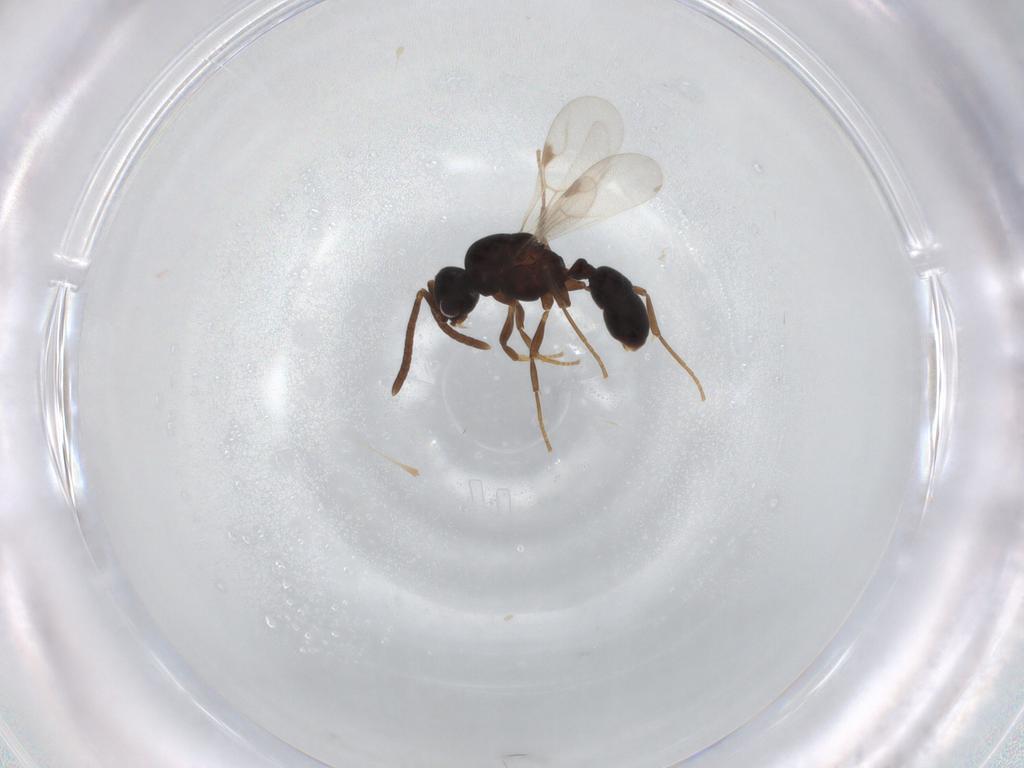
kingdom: Animalia
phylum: Arthropoda
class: Insecta
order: Hymenoptera
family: Formicidae
